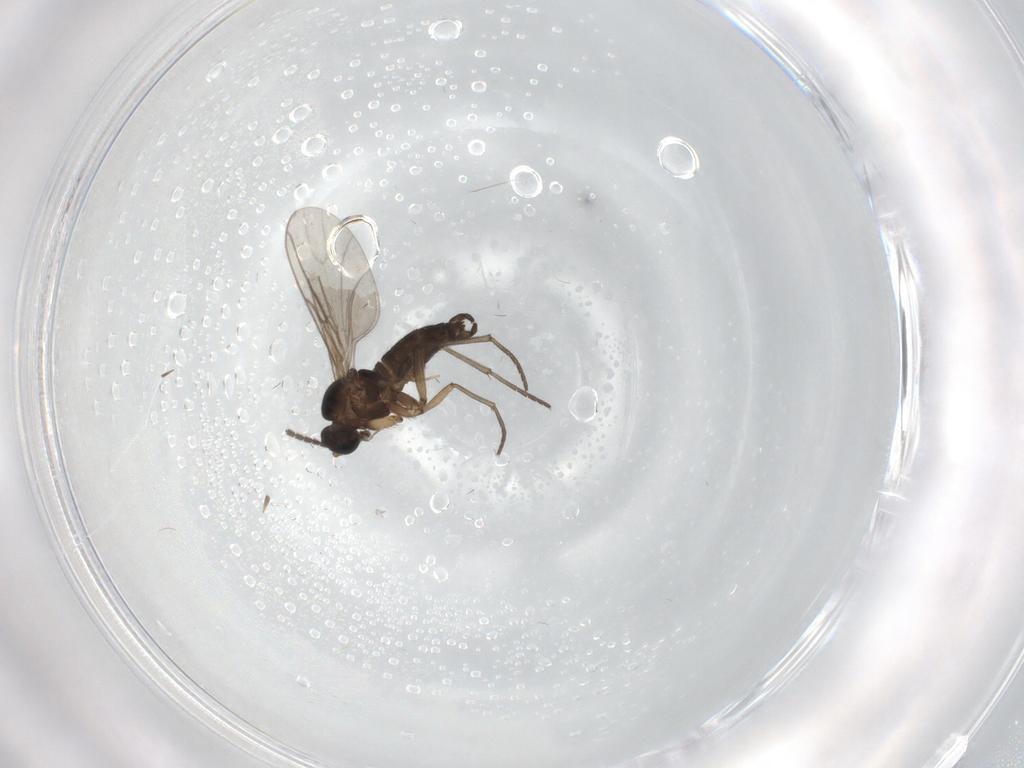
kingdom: Animalia
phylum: Arthropoda
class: Insecta
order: Diptera
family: Sciaridae
